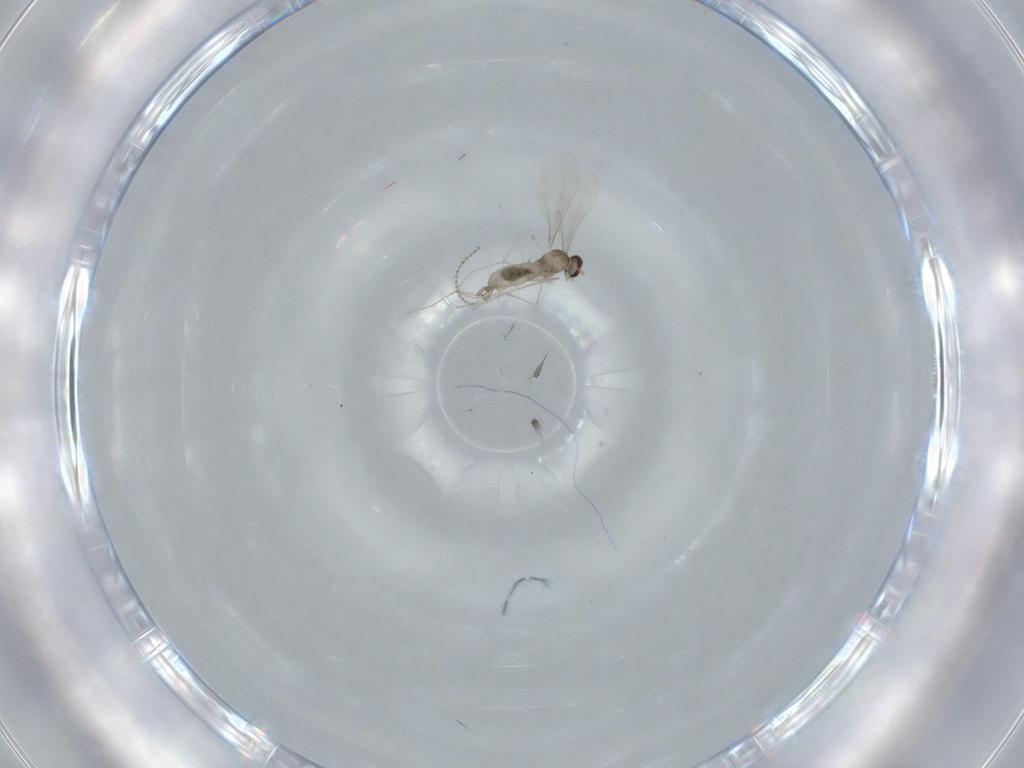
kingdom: Animalia
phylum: Arthropoda
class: Insecta
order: Diptera
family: Cecidomyiidae
